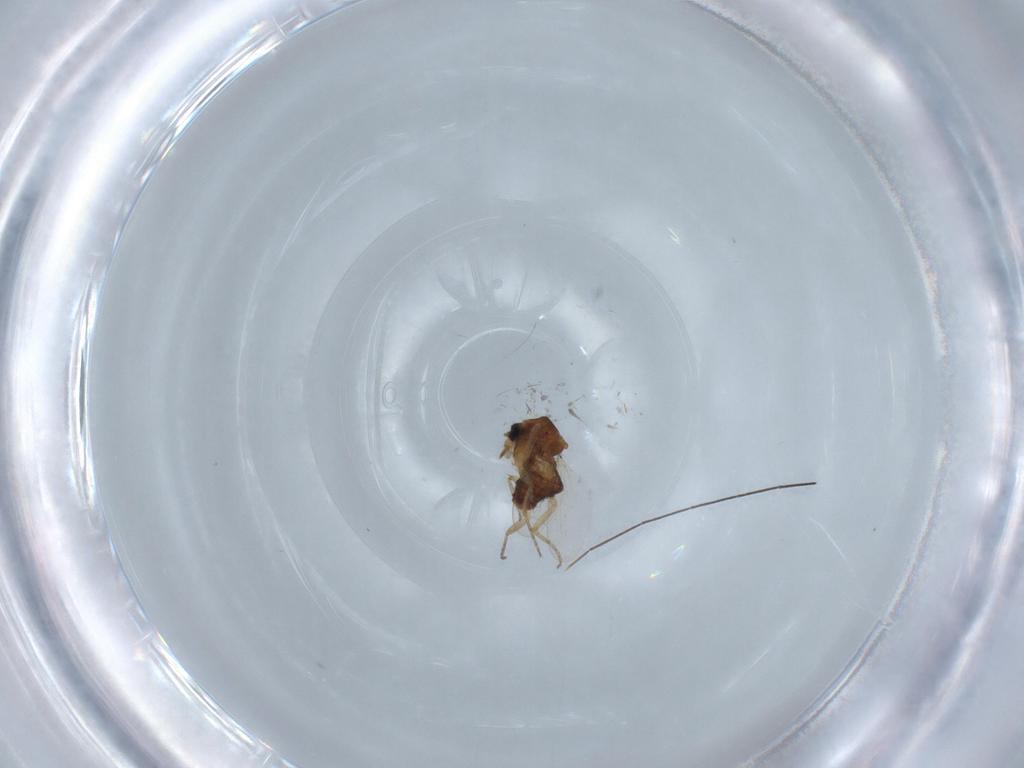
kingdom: Animalia
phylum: Arthropoda
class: Insecta
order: Diptera
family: Ceratopogonidae
